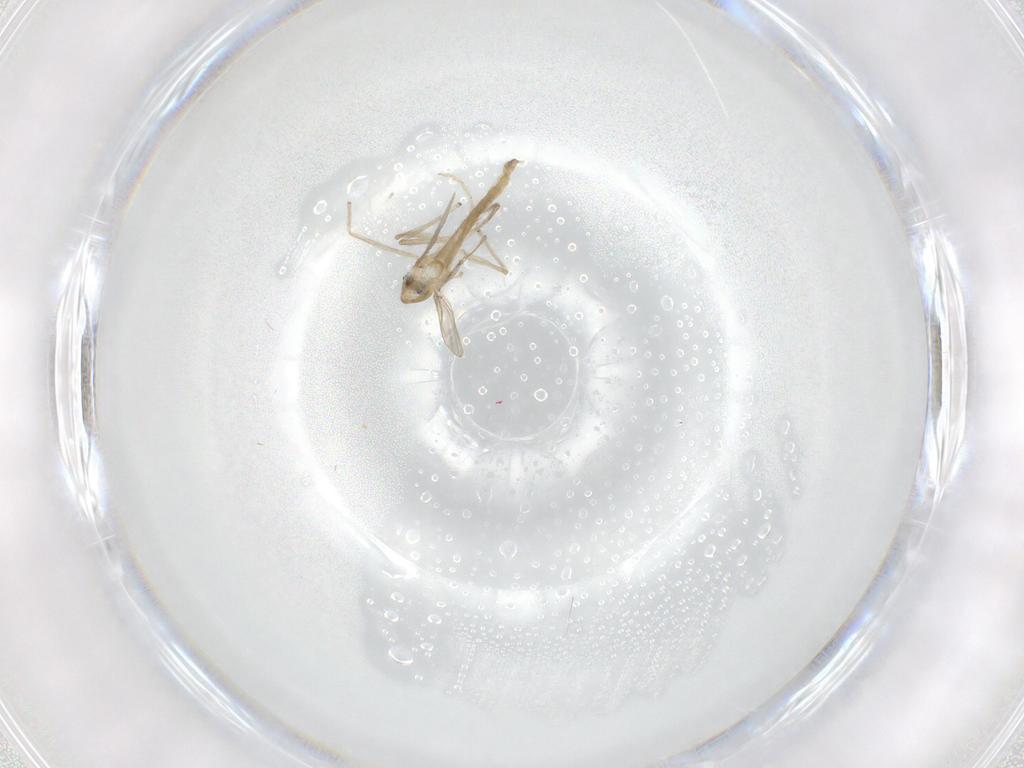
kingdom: Animalia
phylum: Arthropoda
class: Insecta
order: Diptera
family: Chironomidae
